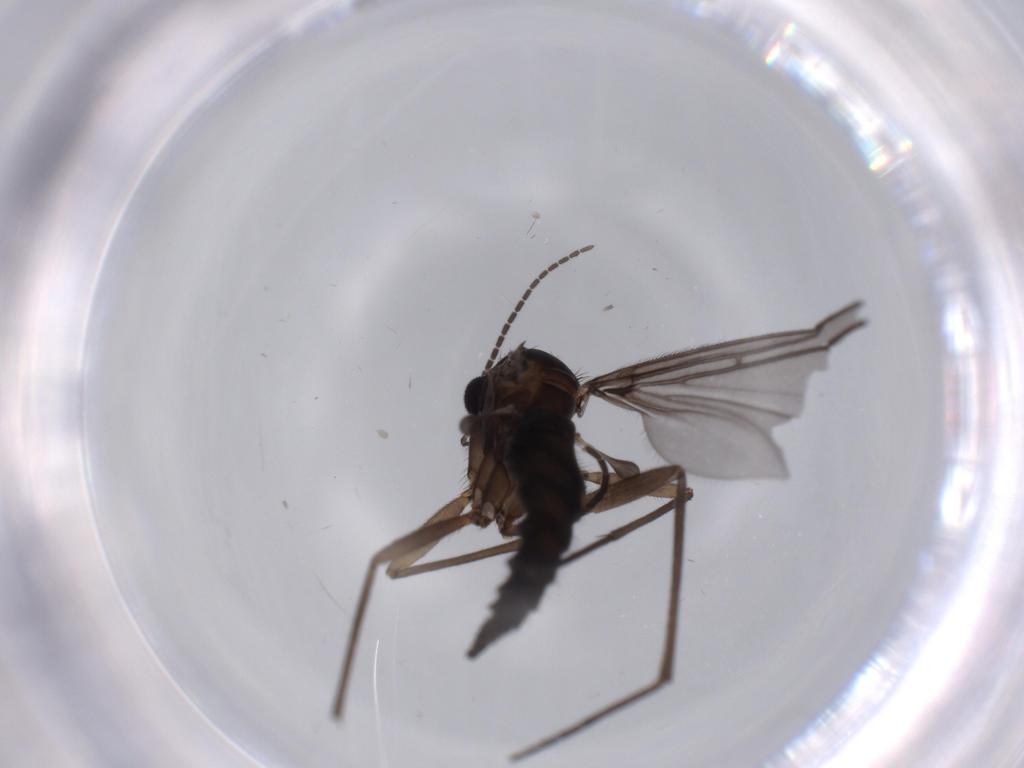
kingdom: Animalia
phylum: Arthropoda
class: Insecta
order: Diptera
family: Sciaridae
